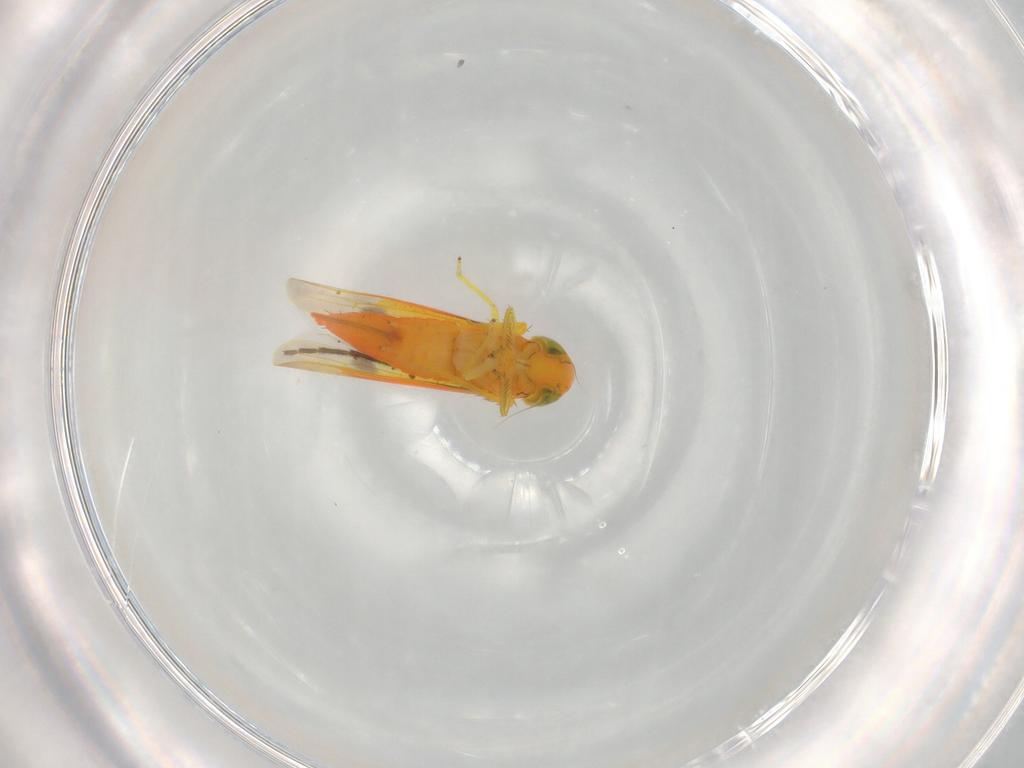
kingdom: Animalia
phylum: Arthropoda
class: Insecta
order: Hemiptera
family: Cicadellidae
